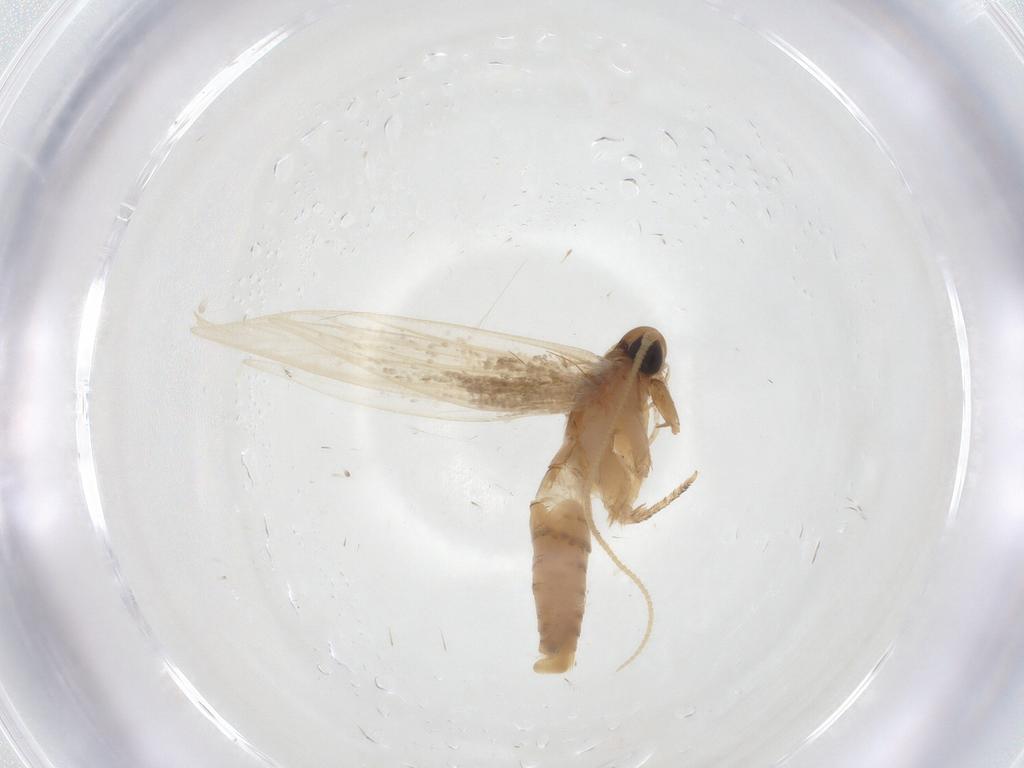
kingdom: Animalia
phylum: Arthropoda
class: Insecta
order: Lepidoptera
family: Tineidae
